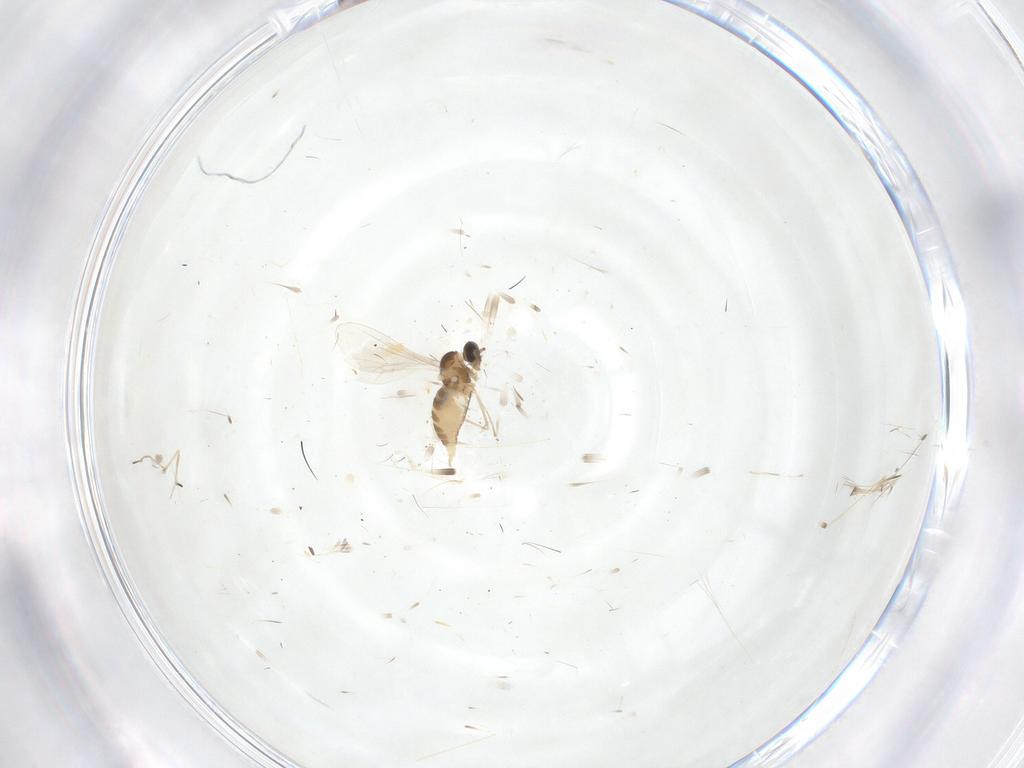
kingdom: Animalia
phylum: Arthropoda
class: Insecta
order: Diptera
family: Cecidomyiidae
